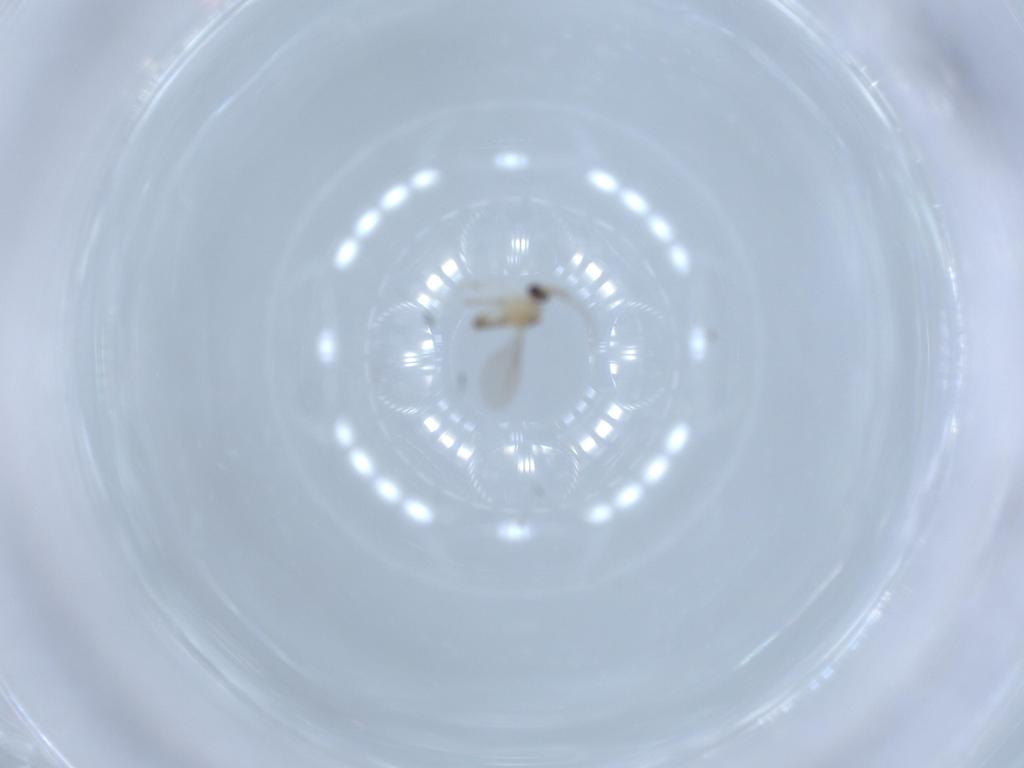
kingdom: Animalia
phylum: Arthropoda
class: Insecta
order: Diptera
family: Cecidomyiidae
